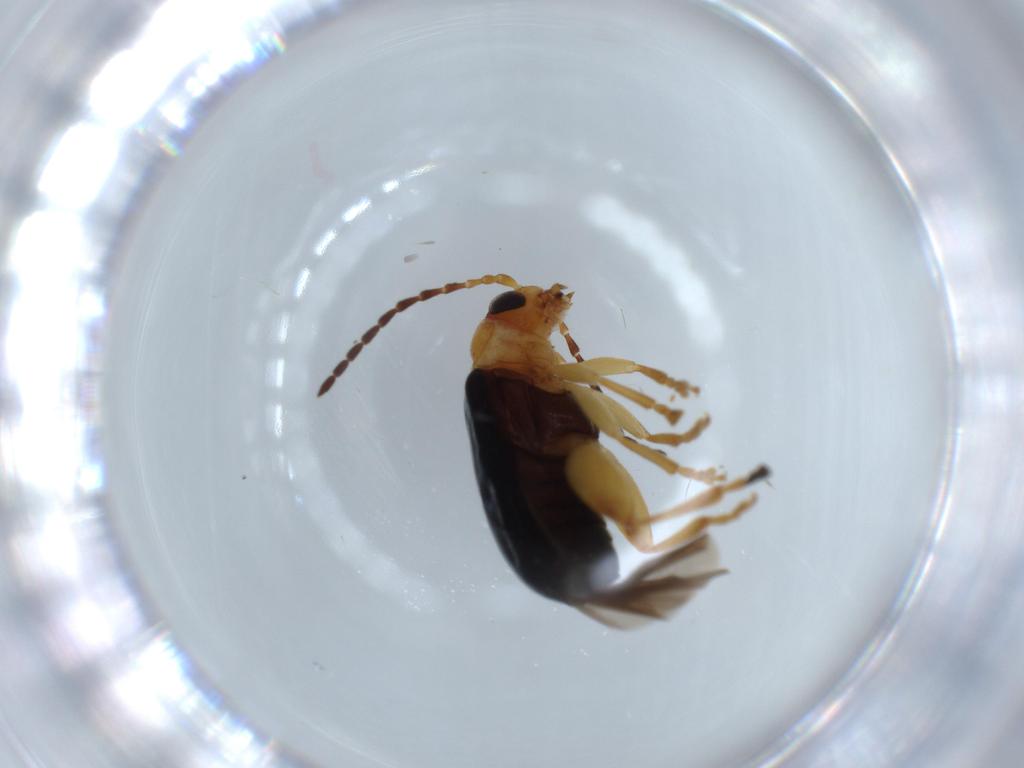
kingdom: Animalia
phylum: Arthropoda
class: Insecta
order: Coleoptera
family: Chrysomelidae
